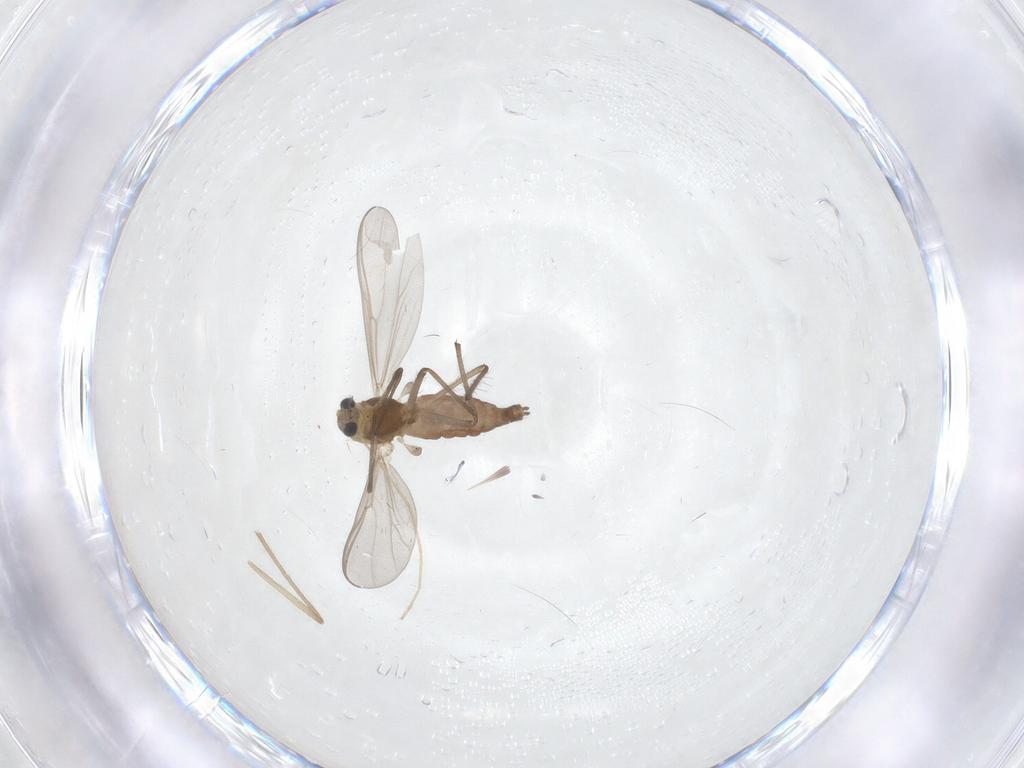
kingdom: Animalia
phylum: Arthropoda
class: Insecta
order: Diptera
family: Chironomidae
